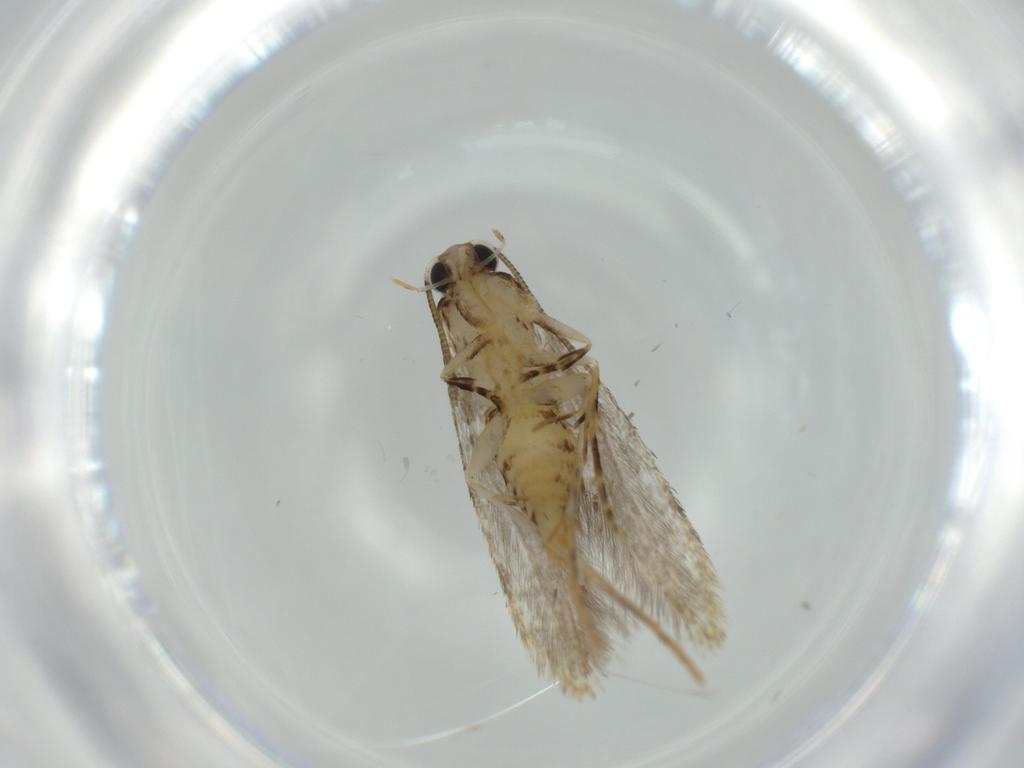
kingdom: Animalia
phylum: Arthropoda
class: Insecta
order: Lepidoptera
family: Tineidae
